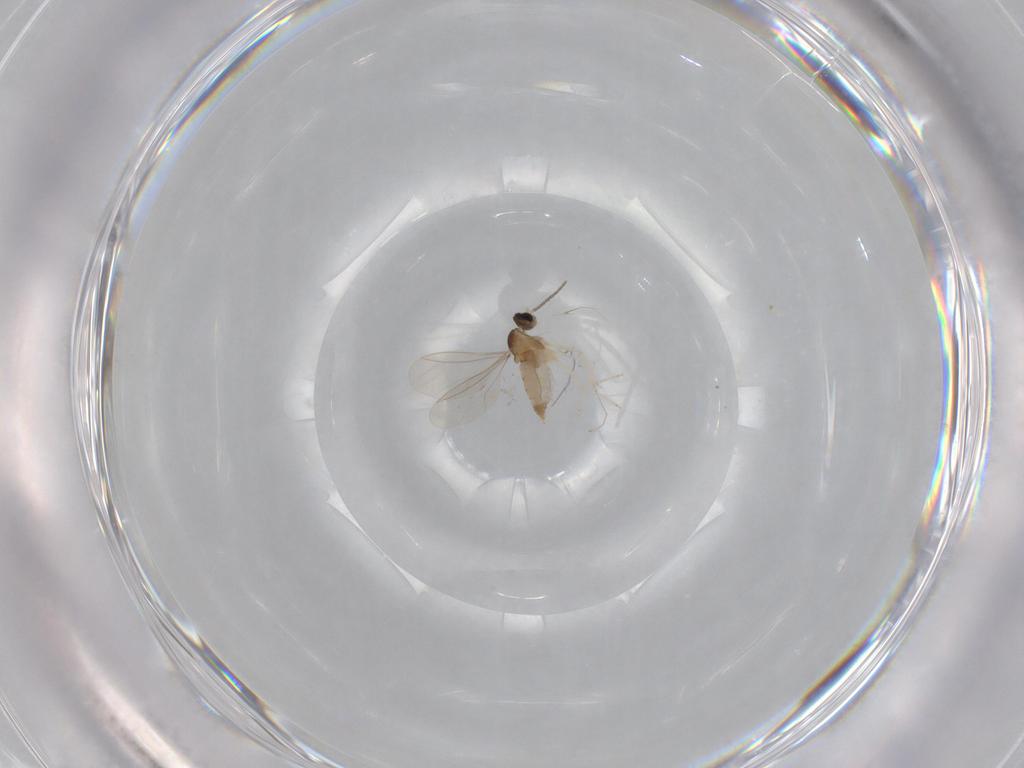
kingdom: Animalia
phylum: Arthropoda
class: Insecta
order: Diptera
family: Cecidomyiidae
